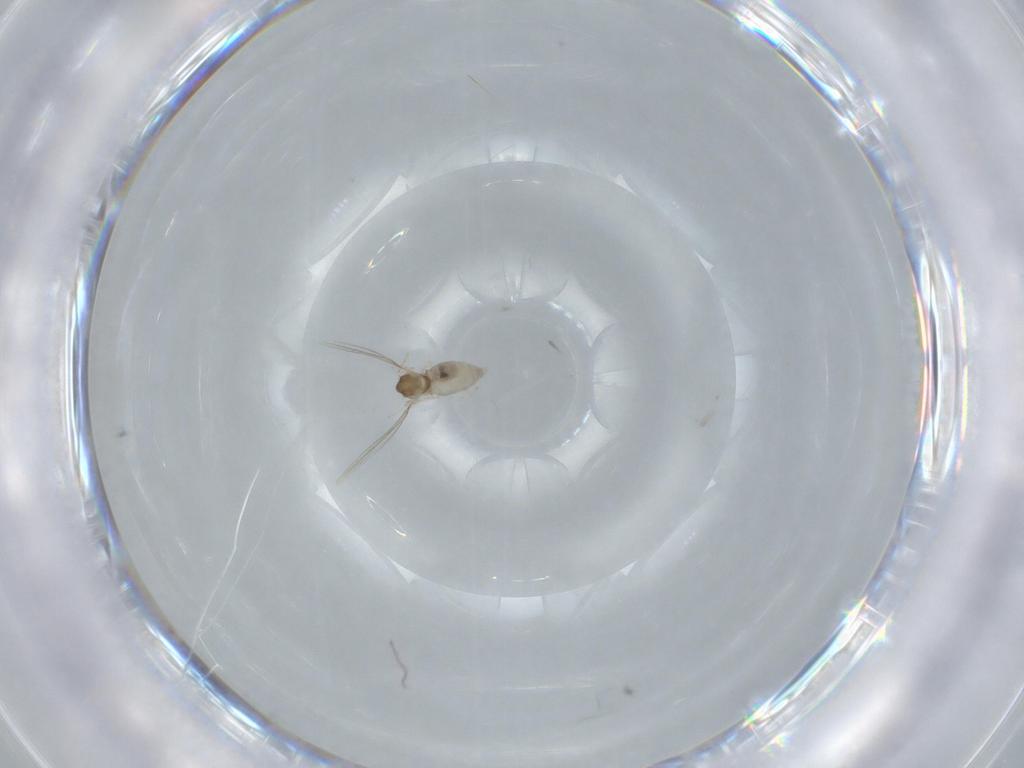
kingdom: Animalia
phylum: Arthropoda
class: Insecta
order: Diptera
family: Cecidomyiidae
